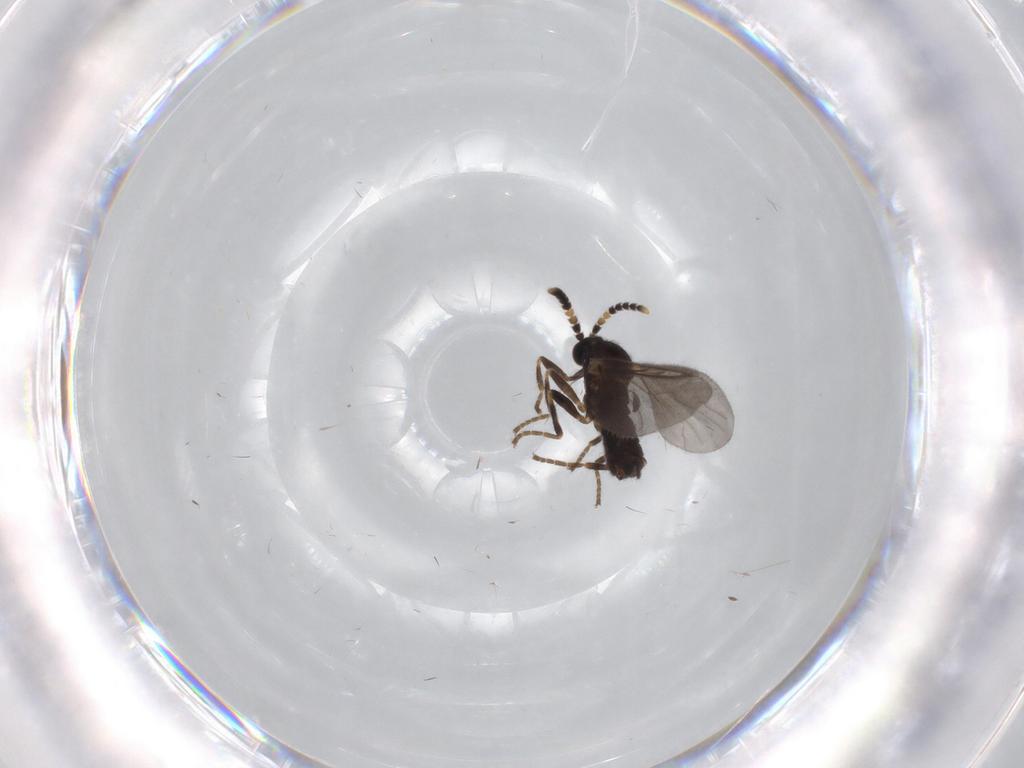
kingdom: Animalia
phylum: Arthropoda
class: Insecta
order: Diptera
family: Scatopsidae
